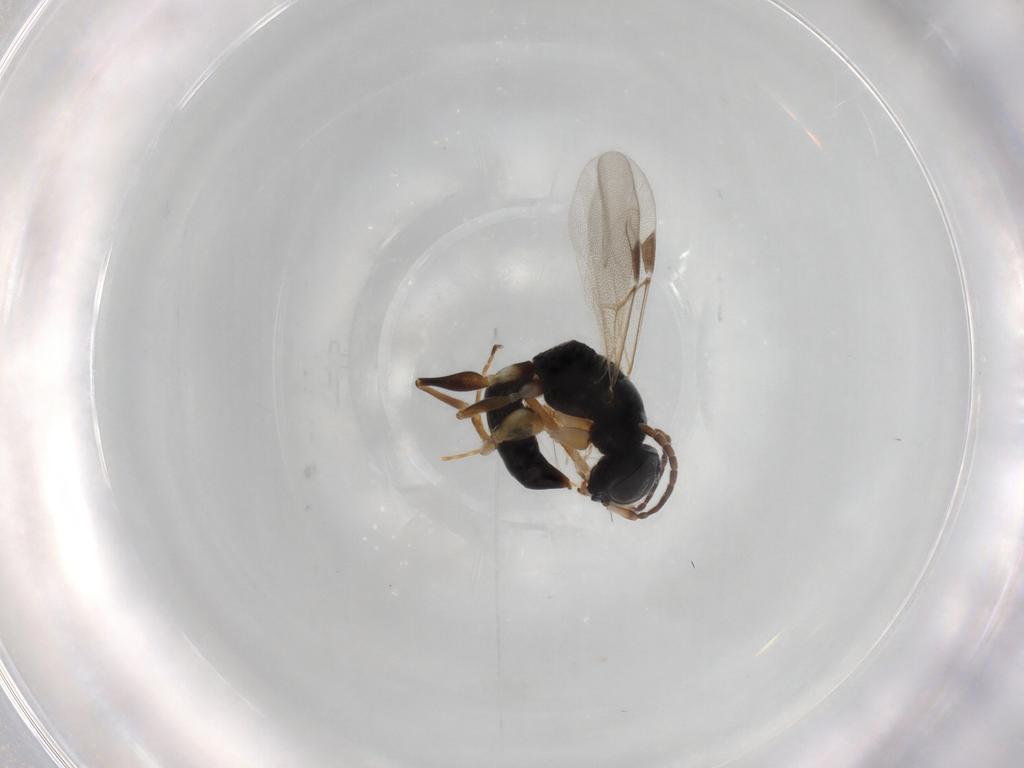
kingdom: Animalia
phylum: Arthropoda
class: Insecta
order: Hymenoptera
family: Dryinidae
